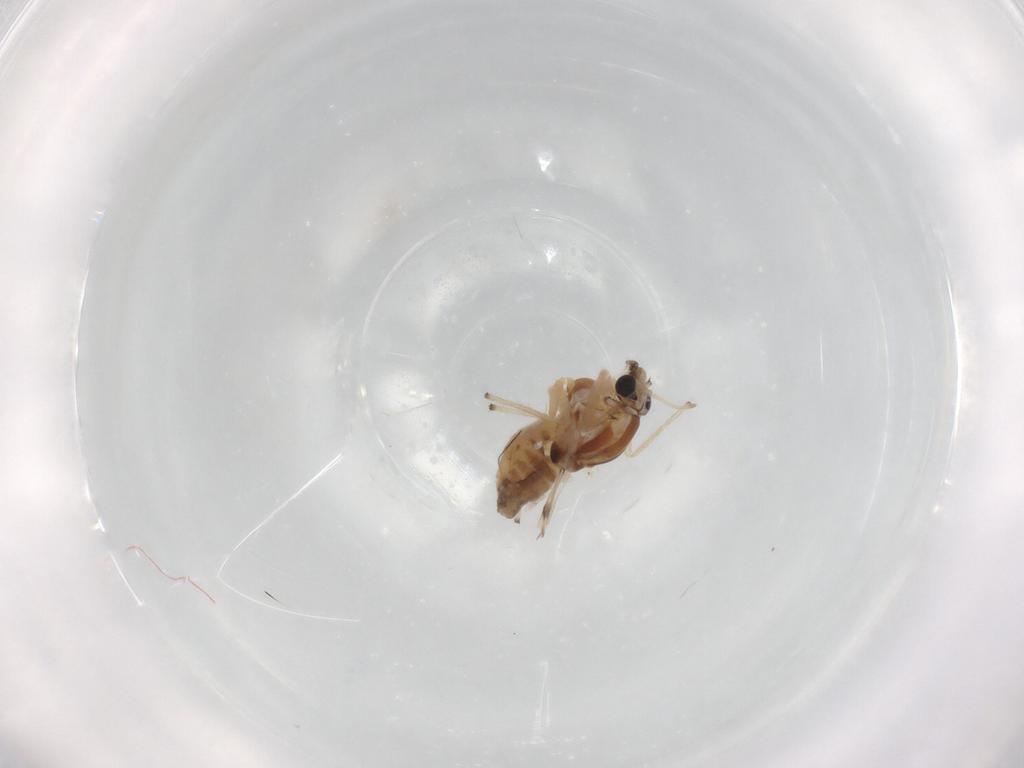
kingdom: Animalia
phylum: Arthropoda
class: Insecta
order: Diptera
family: Chironomidae
